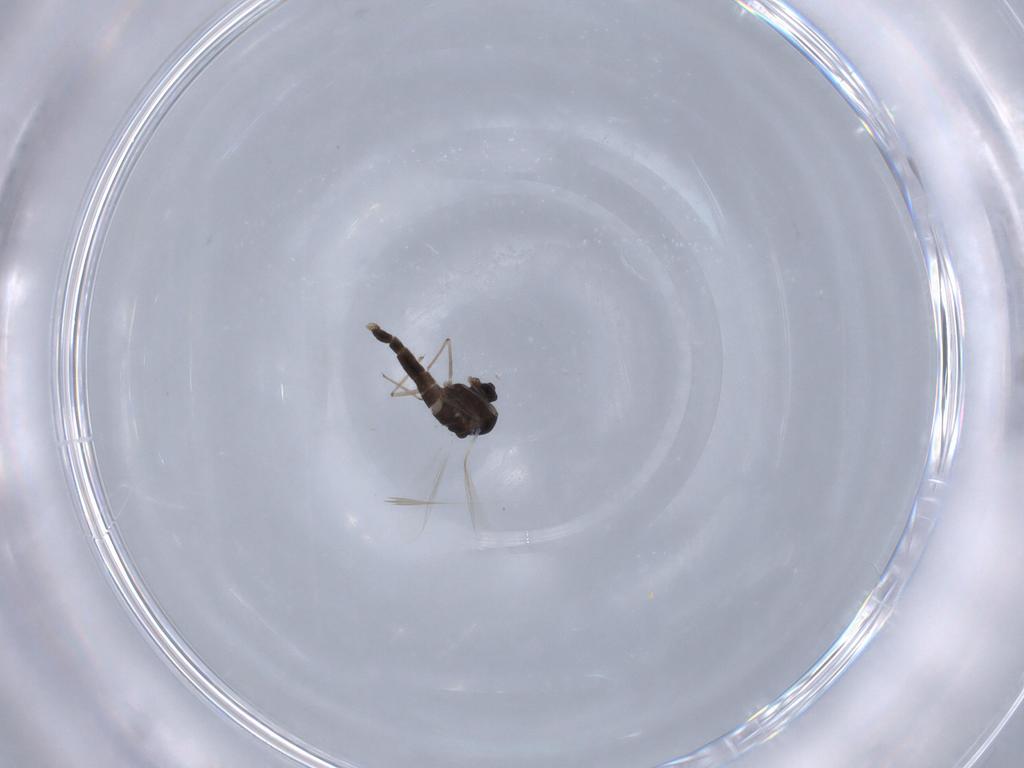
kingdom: Animalia
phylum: Arthropoda
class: Insecta
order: Diptera
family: Chironomidae
